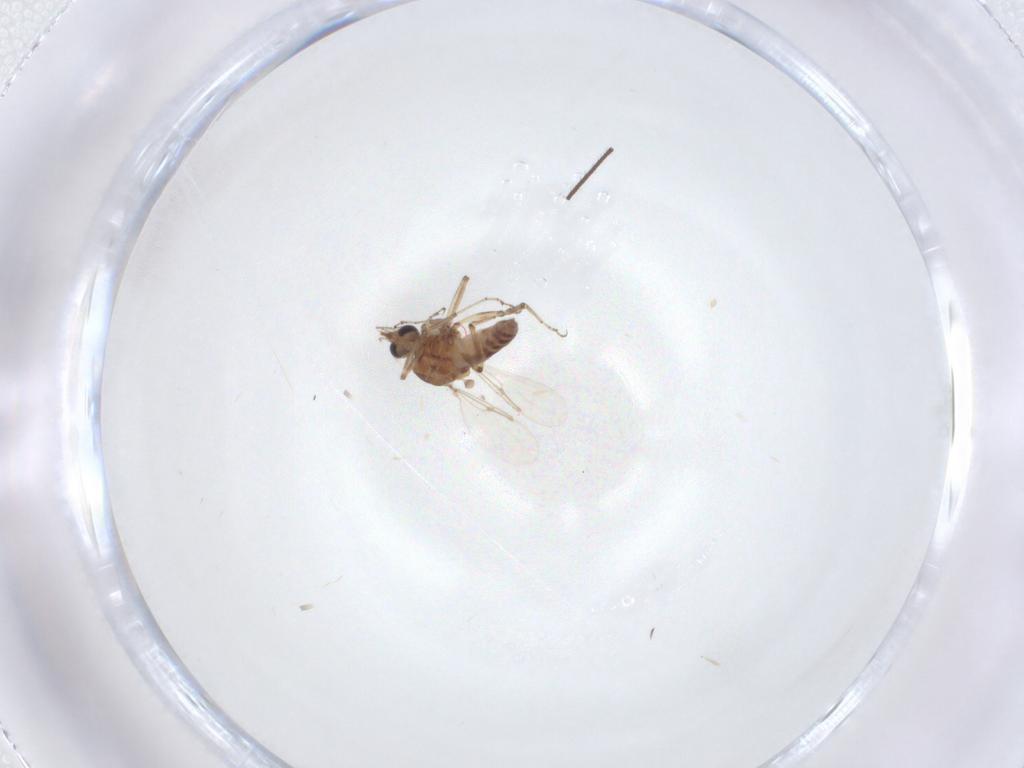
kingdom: Animalia
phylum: Arthropoda
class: Insecta
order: Diptera
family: Ceratopogonidae
